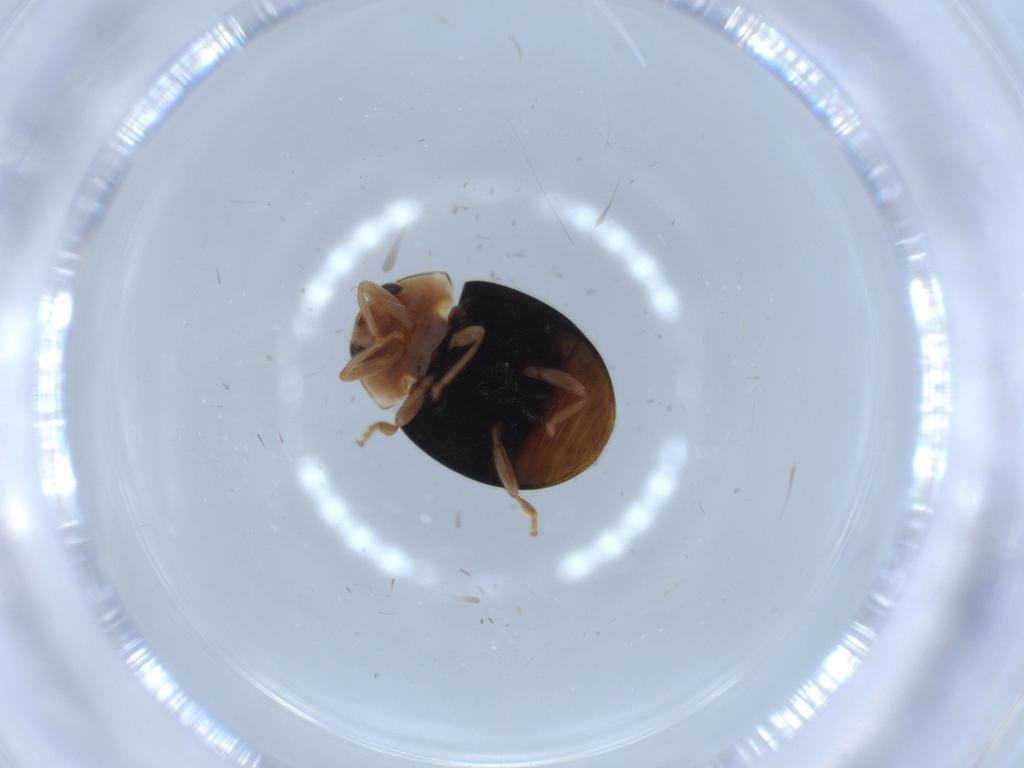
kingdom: Animalia
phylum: Arthropoda
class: Insecta
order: Coleoptera
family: Coccinellidae
